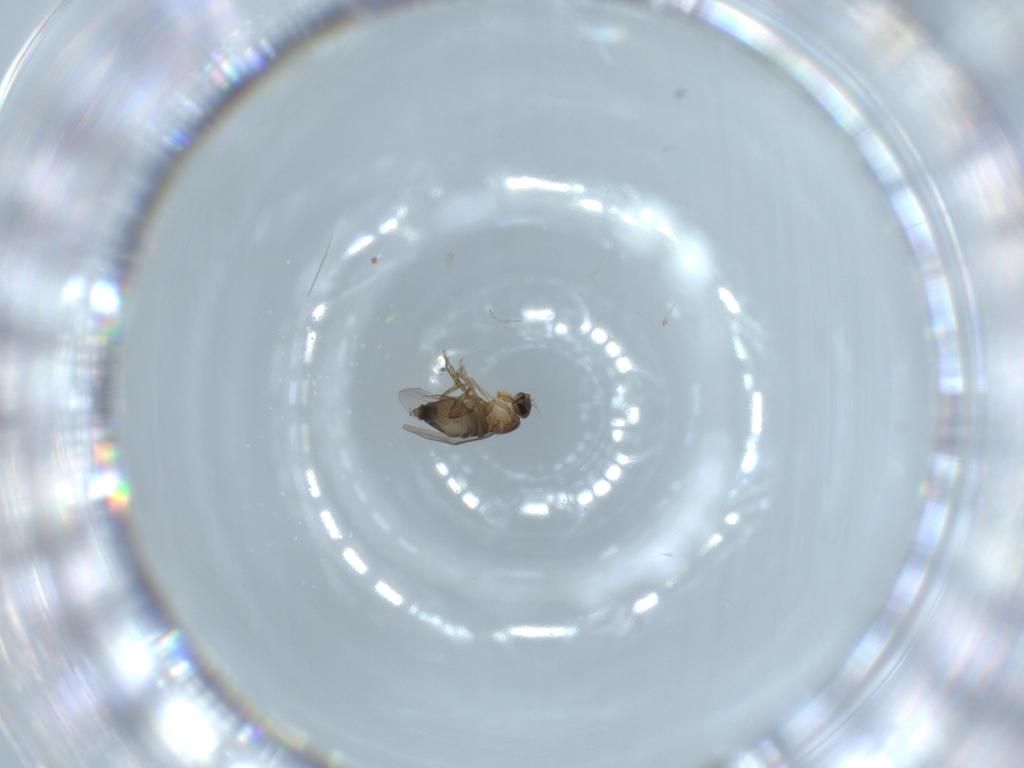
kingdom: Animalia
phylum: Arthropoda
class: Insecta
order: Diptera
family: Phoridae
